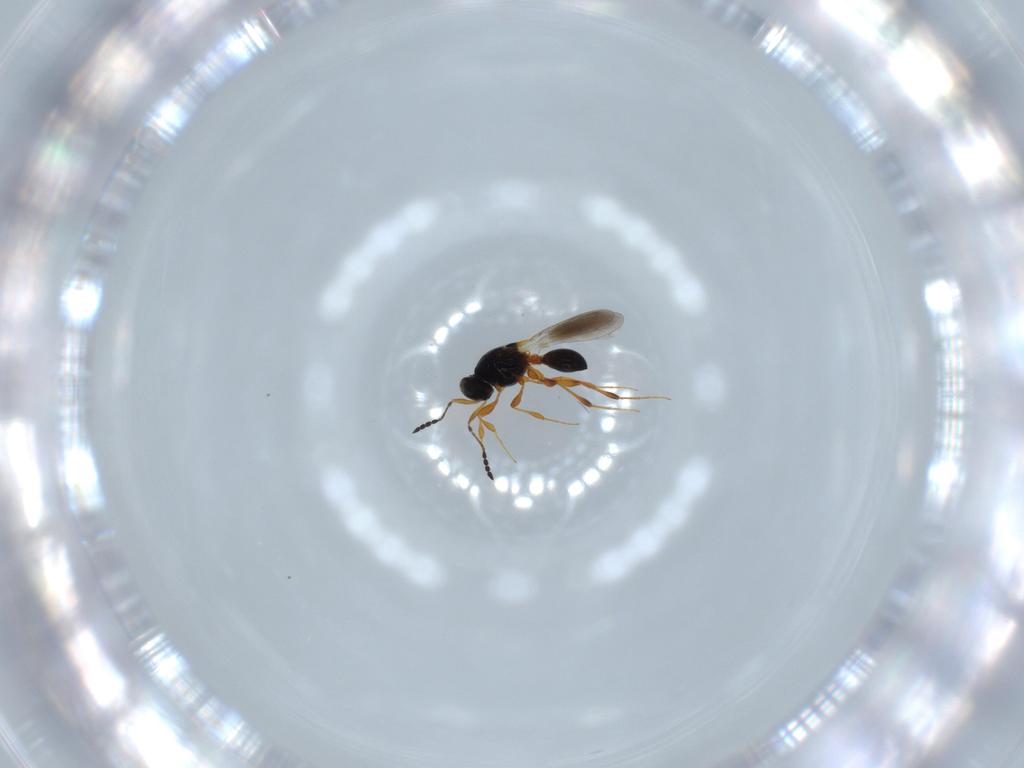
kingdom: Animalia
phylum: Arthropoda
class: Insecta
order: Hymenoptera
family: Platygastridae
